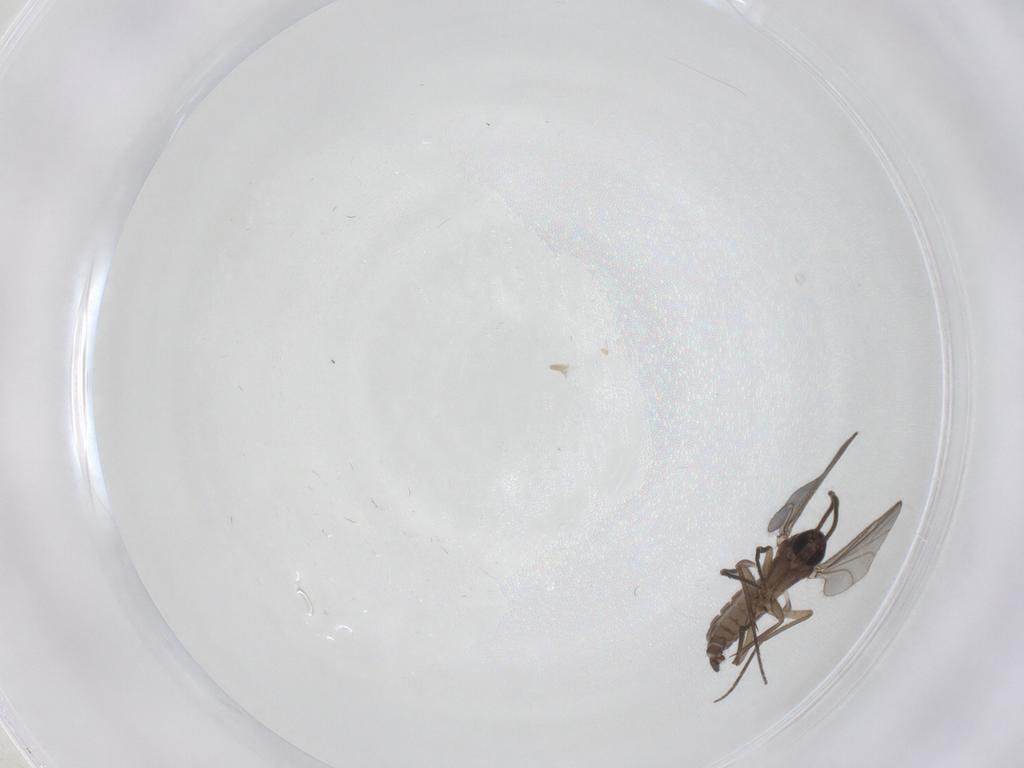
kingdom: Animalia
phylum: Arthropoda
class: Insecta
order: Diptera
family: Sciaridae
